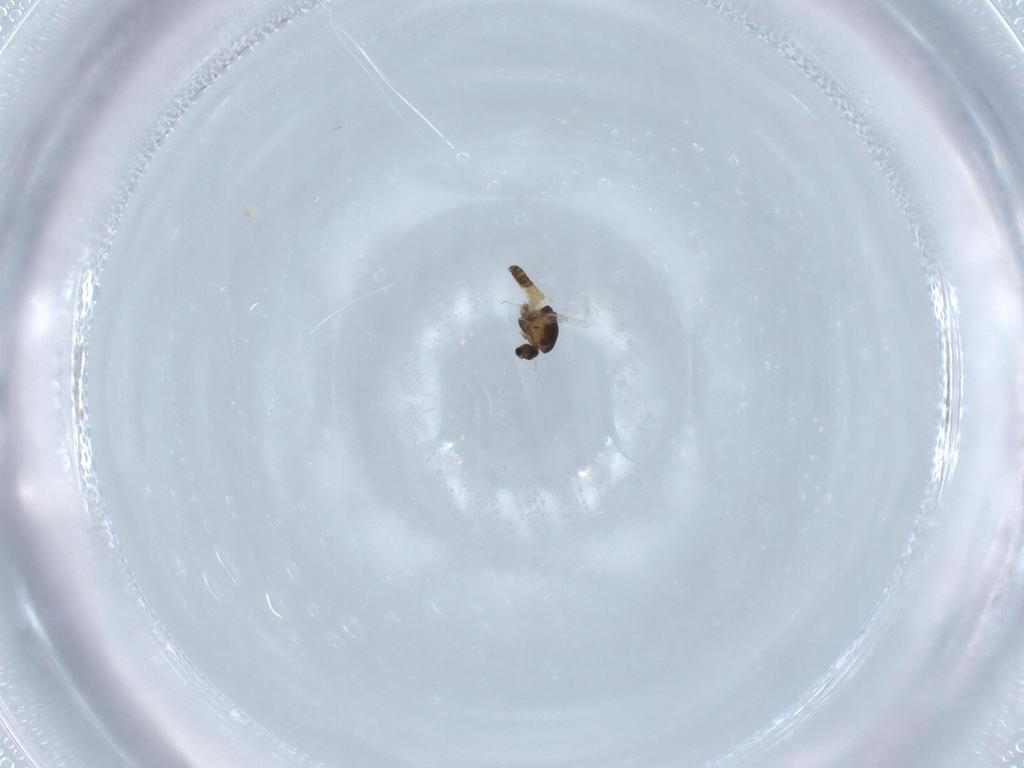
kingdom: Animalia
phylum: Arthropoda
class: Insecta
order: Diptera
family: Chironomidae
